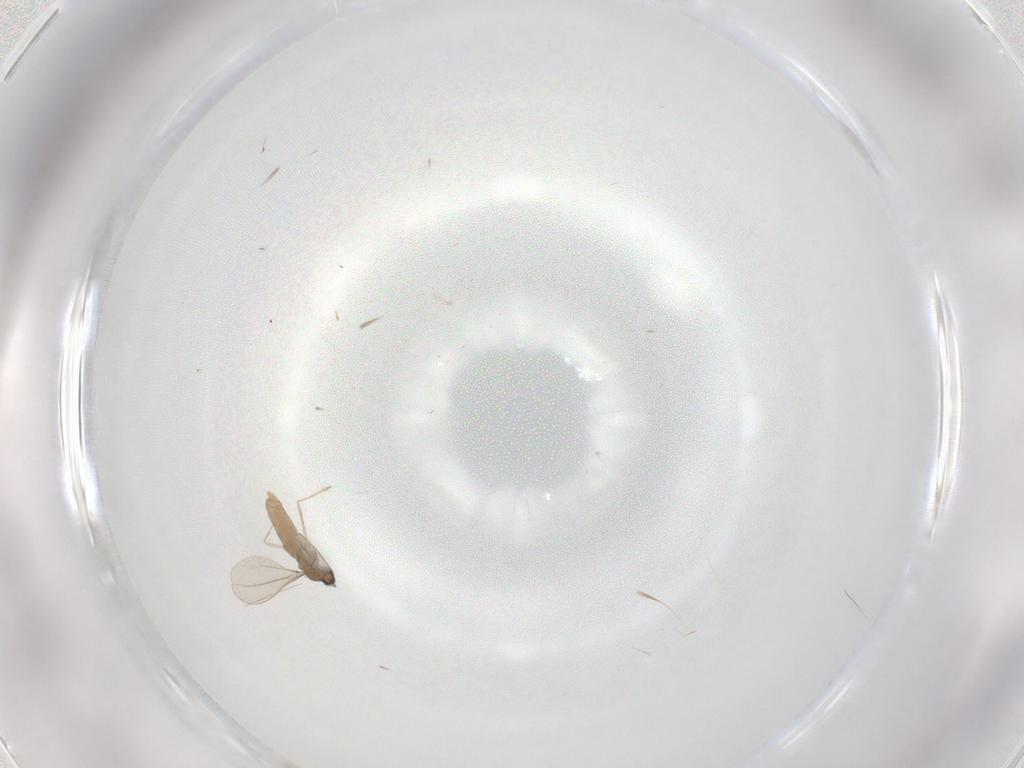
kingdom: Animalia
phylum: Arthropoda
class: Insecta
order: Diptera
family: Cecidomyiidae
